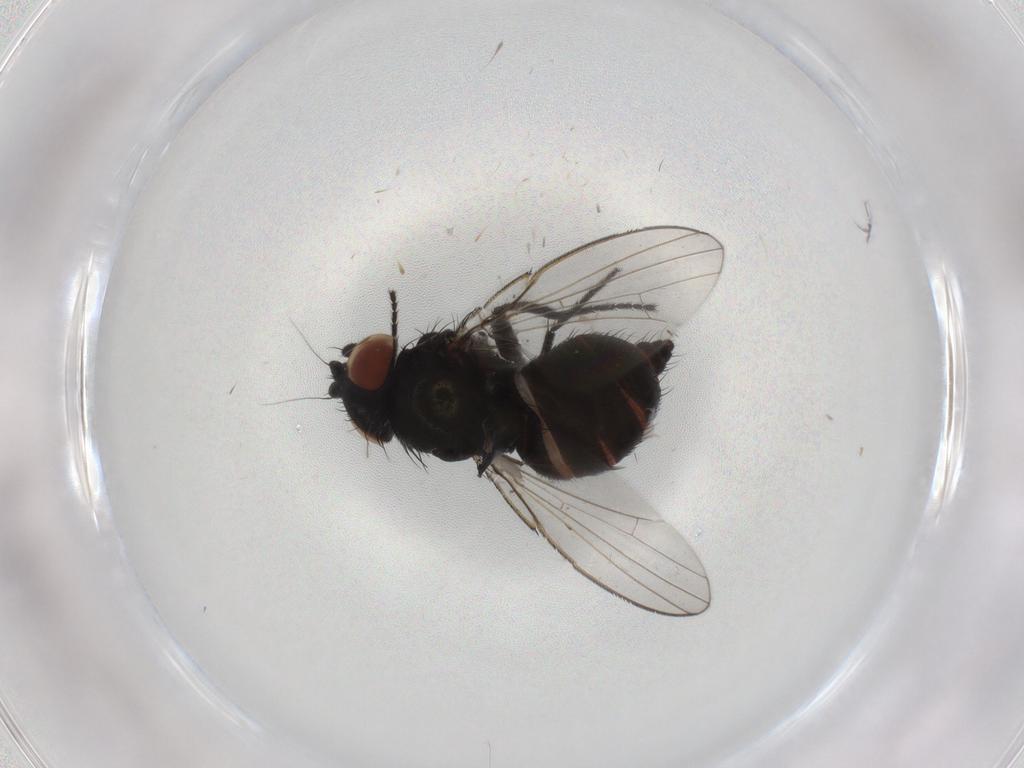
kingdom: Animalia
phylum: Arthropoda
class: Insecta
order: Diptera
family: Milichiidae
